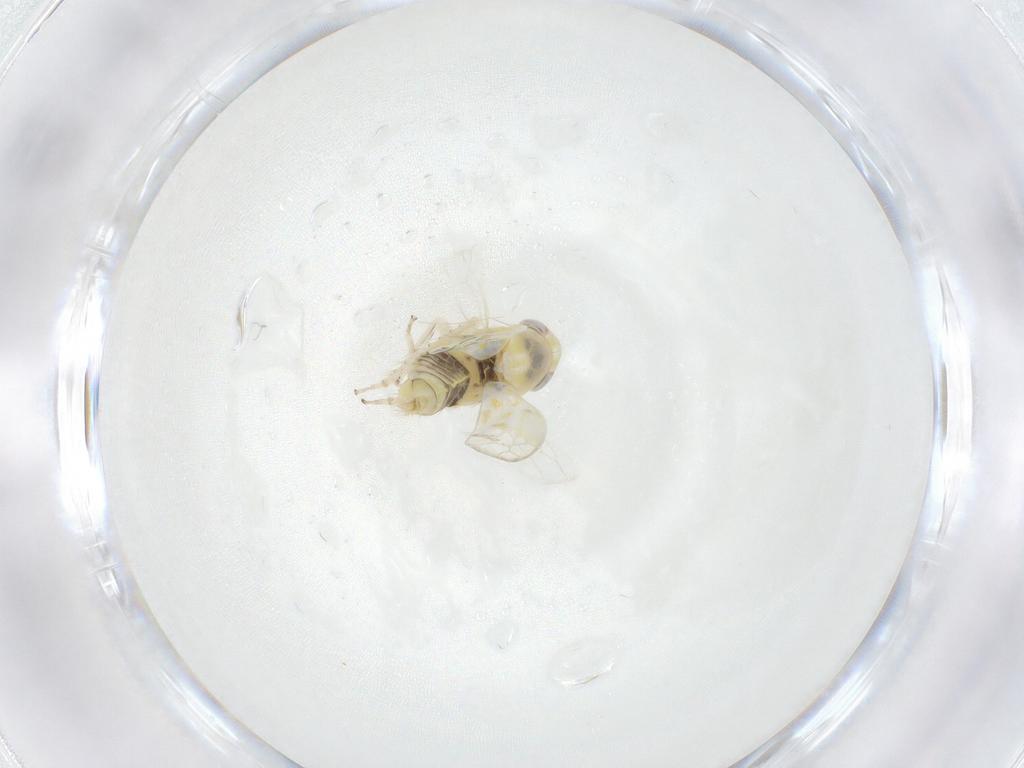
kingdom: Animalia
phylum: Arthropoda
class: Insecta
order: Hemiptera
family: Cicadellidae
